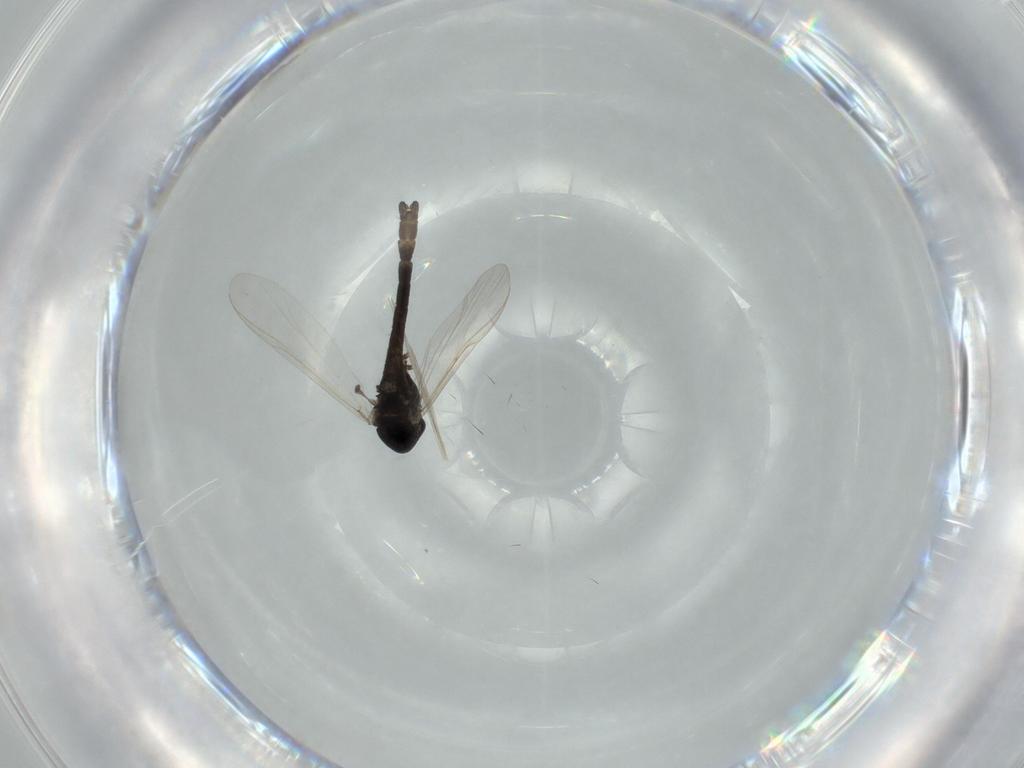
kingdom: Animalia
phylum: Arthropoda
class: Insecta
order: Diptera
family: Chironomidae
